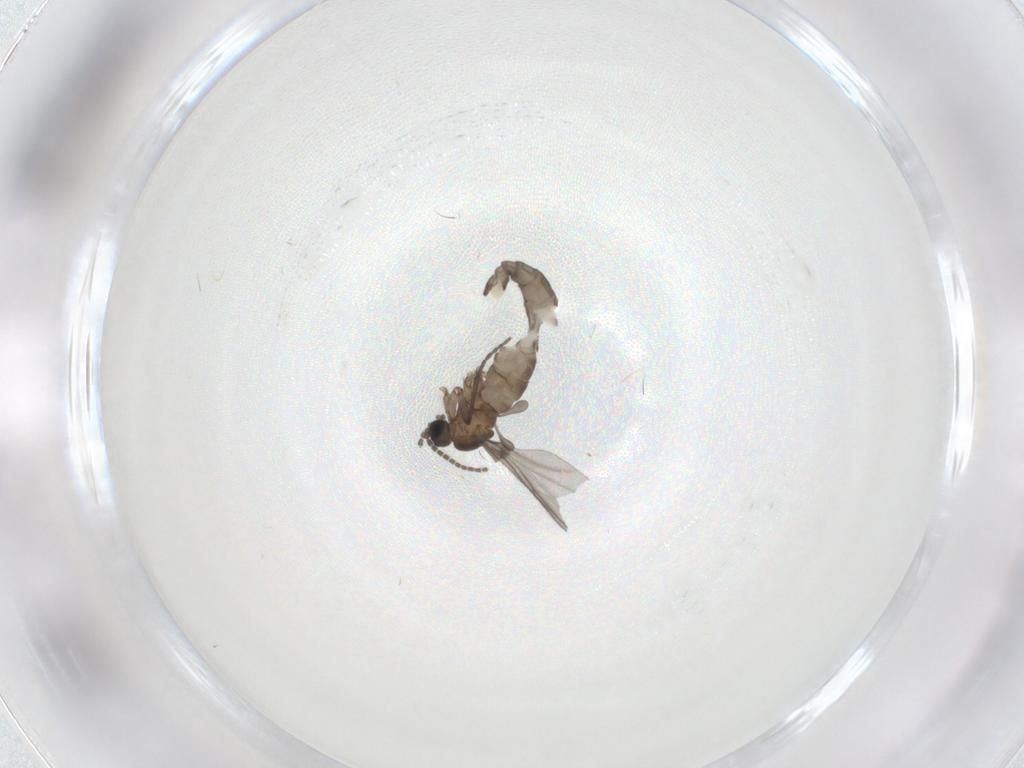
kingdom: Animalia
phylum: Arthropoda
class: Insecta
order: Diptera
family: Sciaridae
